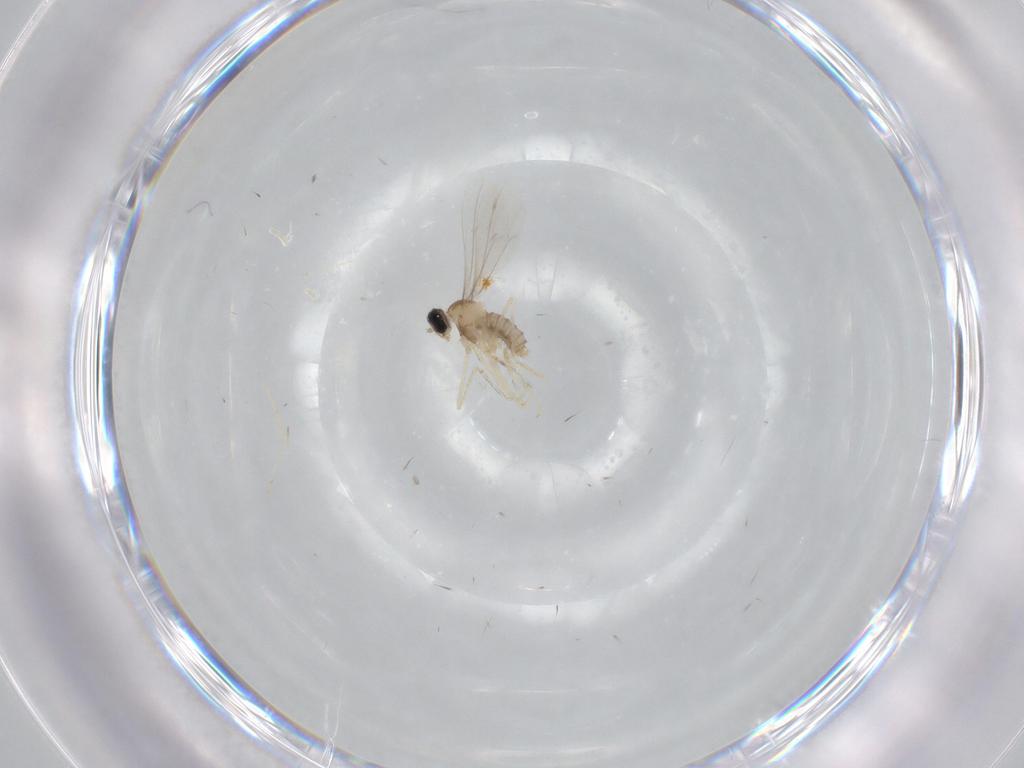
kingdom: Animalia
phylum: Arthropoda
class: Insecta
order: Diptera
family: Cecidomyiidae
